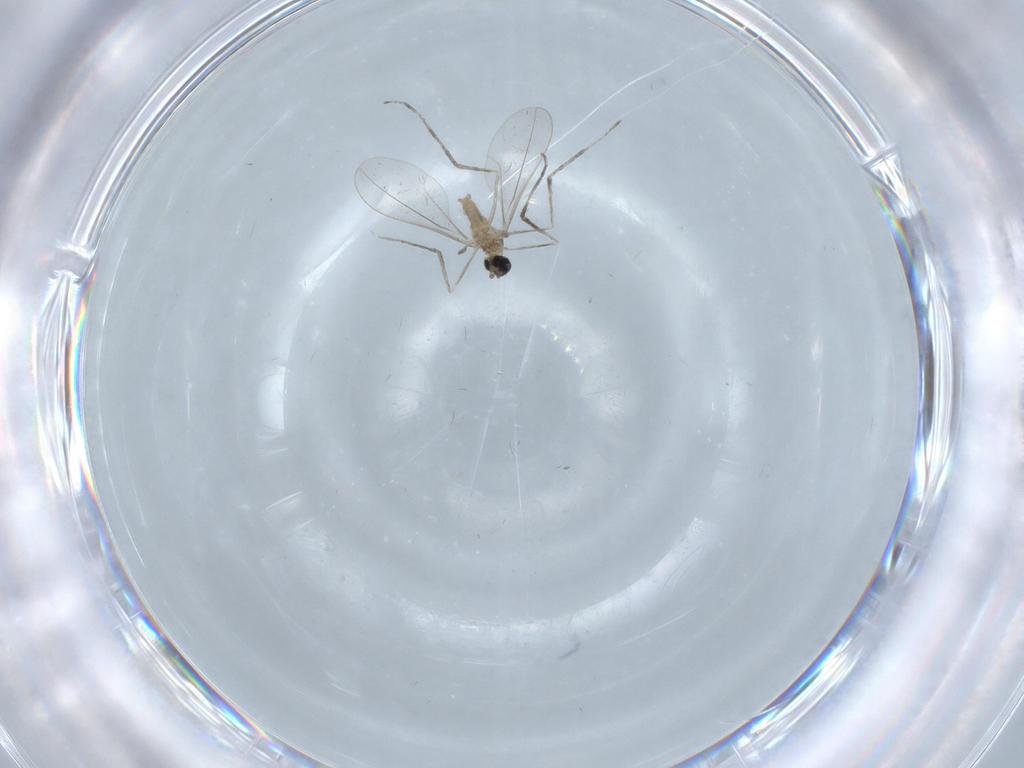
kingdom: Animalia
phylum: Arthropoda
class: Insecta
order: Diptera
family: Cecidomyiidae
